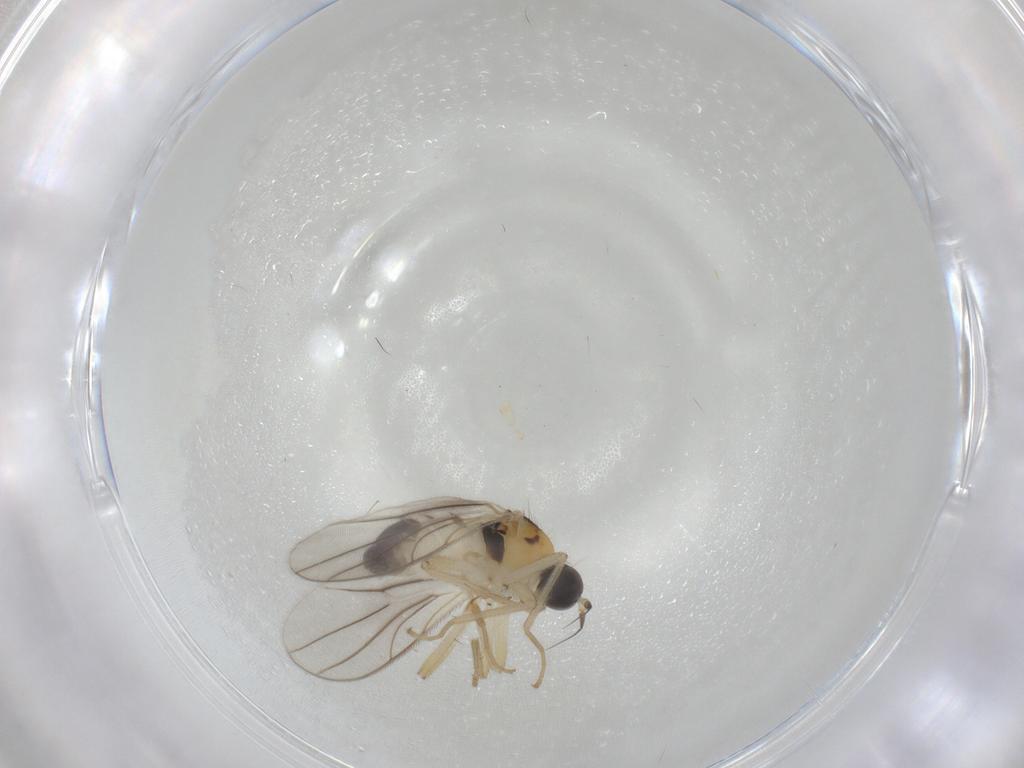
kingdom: Animalia
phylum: Arthropoda
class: Insecta
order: Diptera
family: Hybotidae
